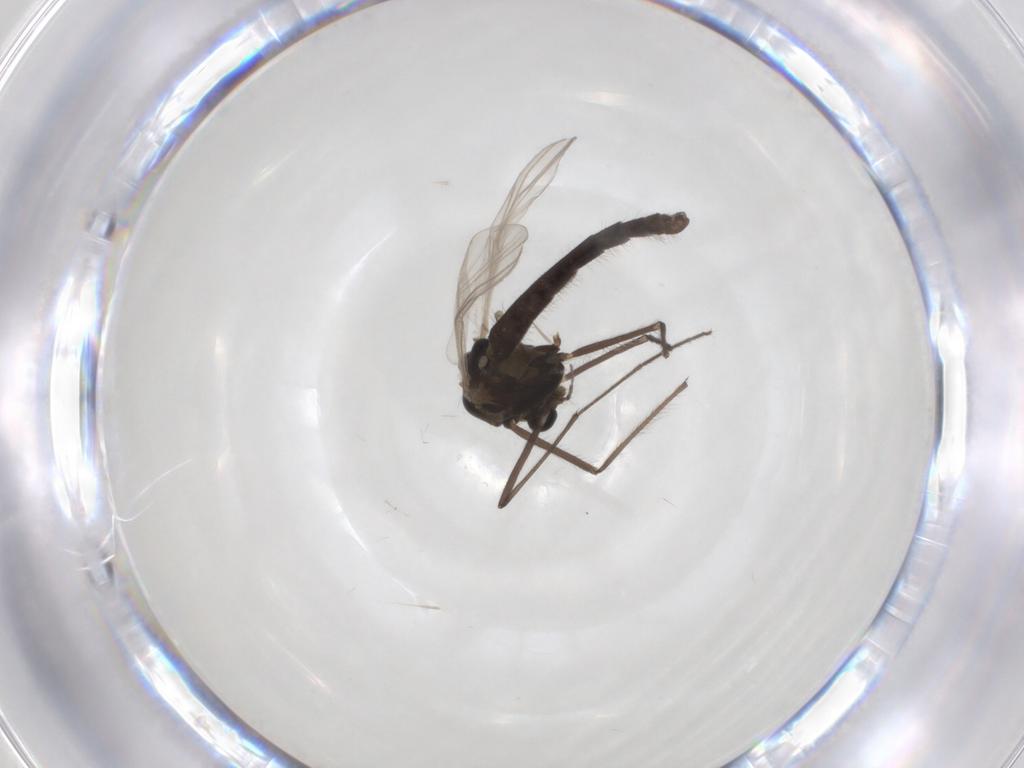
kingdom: Animalia
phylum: Arthropoda
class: Insecta
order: Diptera
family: Chironomidae
